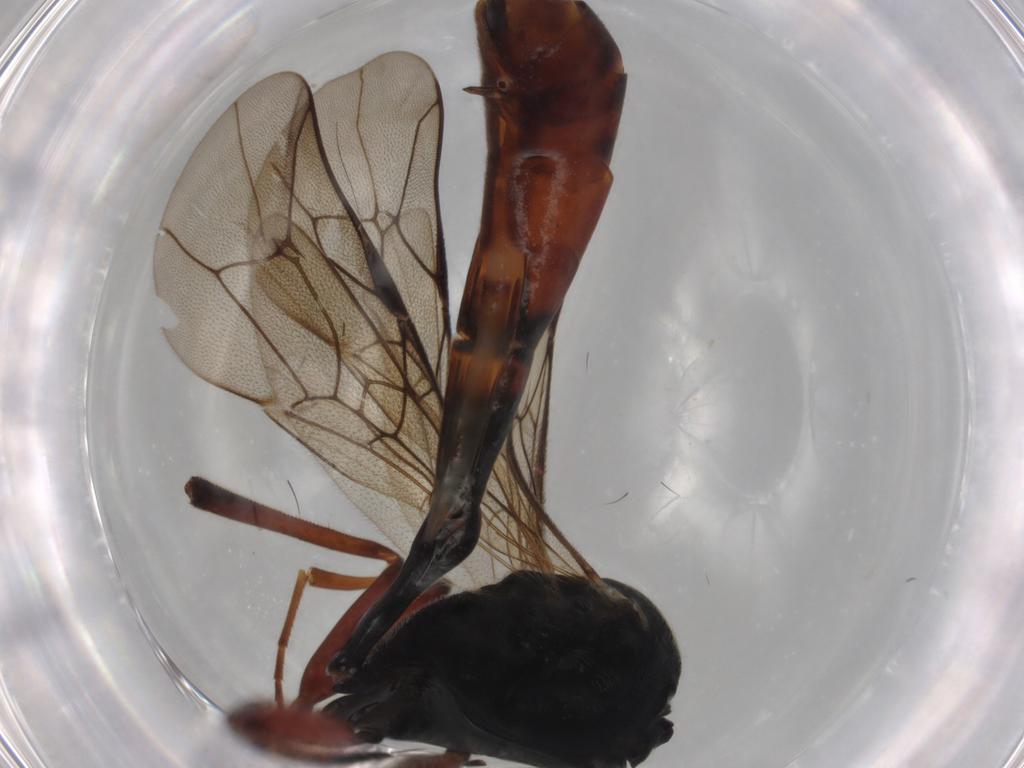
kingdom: Animalia
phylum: Arthropoda
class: Insecta
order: Hymenoptera
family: Ichneumonidae
